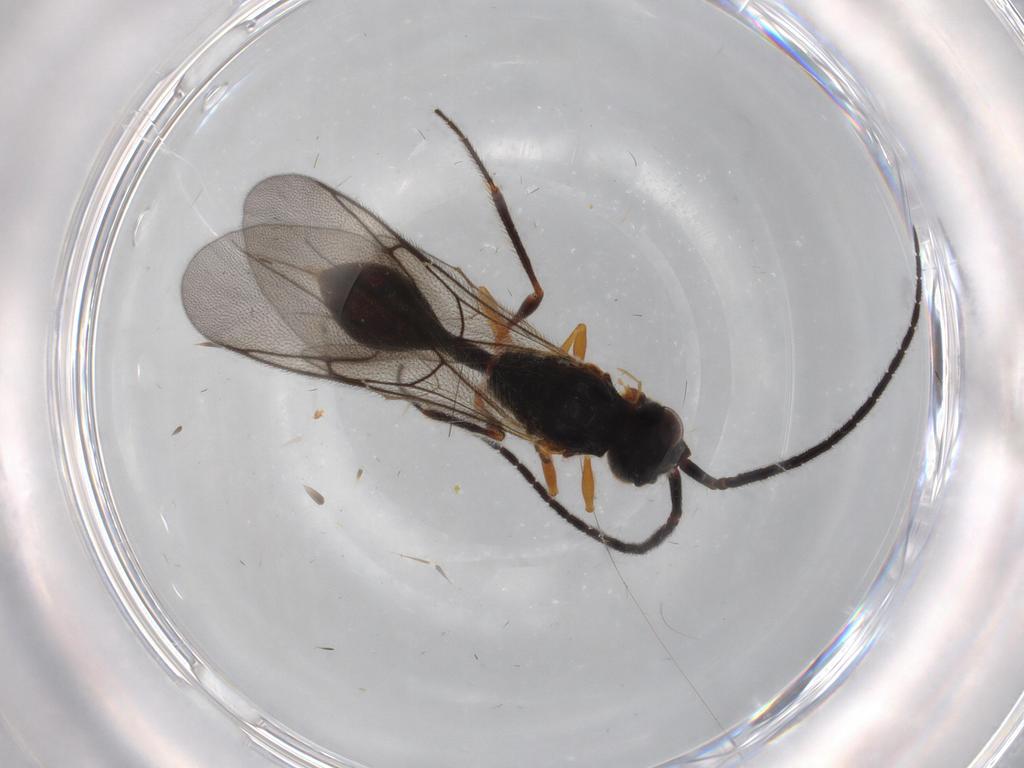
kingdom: Animalia
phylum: Arthropoda
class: Insecta
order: Hymenoptera
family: Diapriidae
